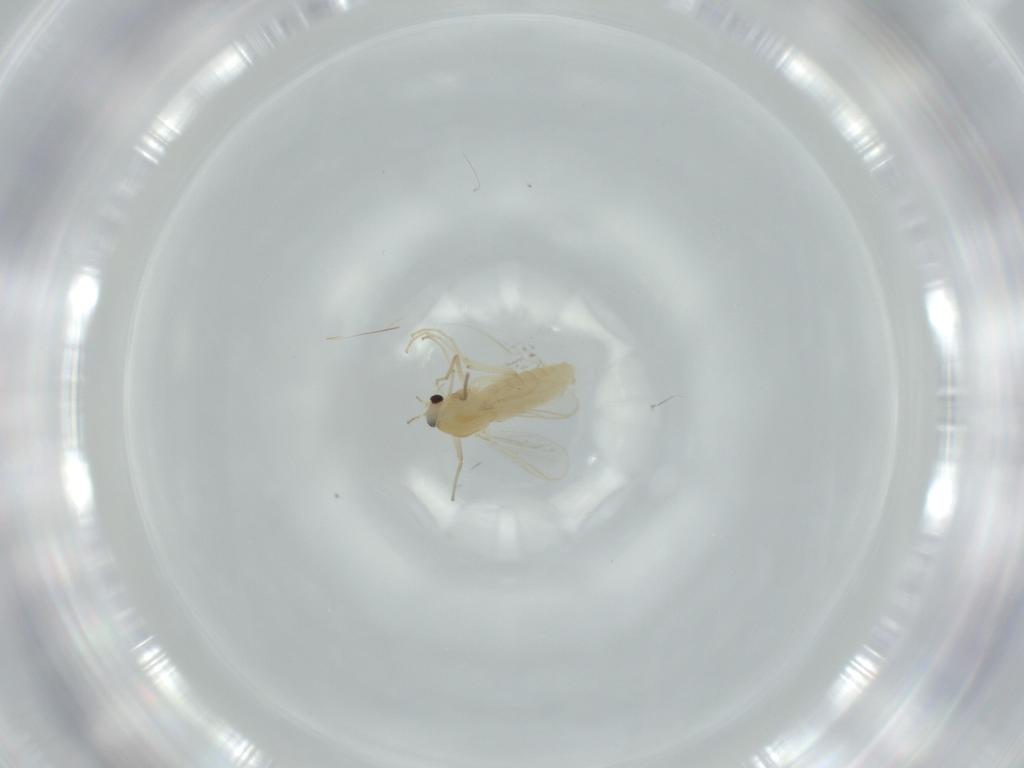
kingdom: Animalia
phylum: Arthropoda
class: Insecta
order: Diptera
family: Chironomidae
